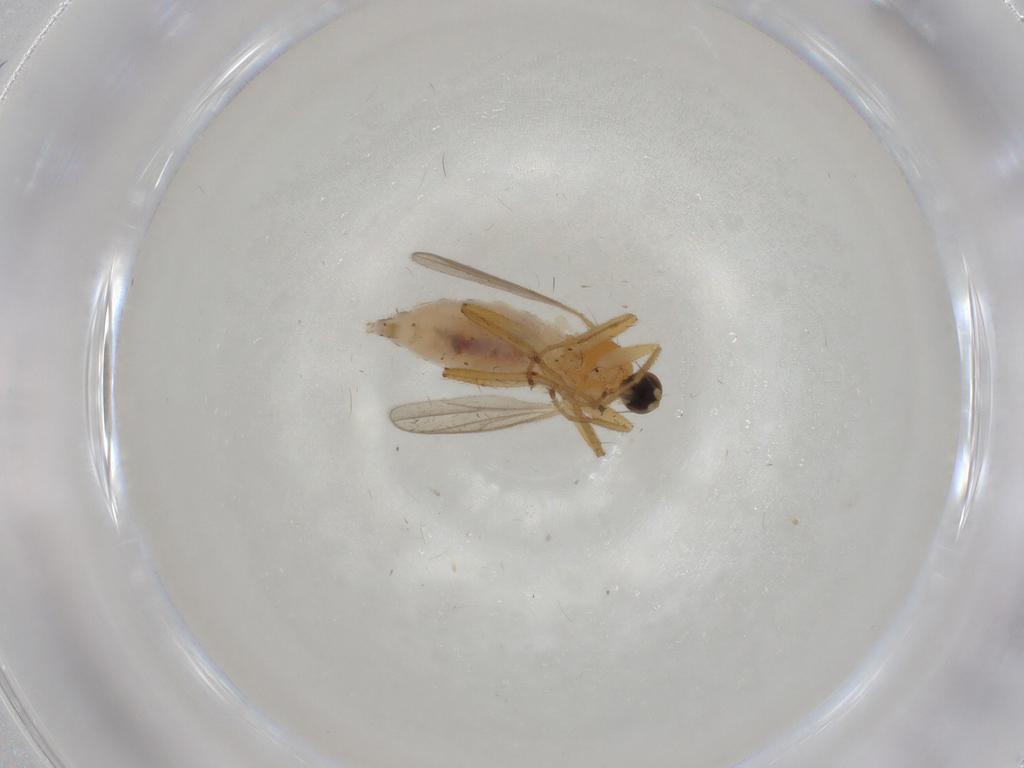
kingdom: Animalia
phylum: Arthropoda
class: Insecta
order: Diptera
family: Hybotidae
